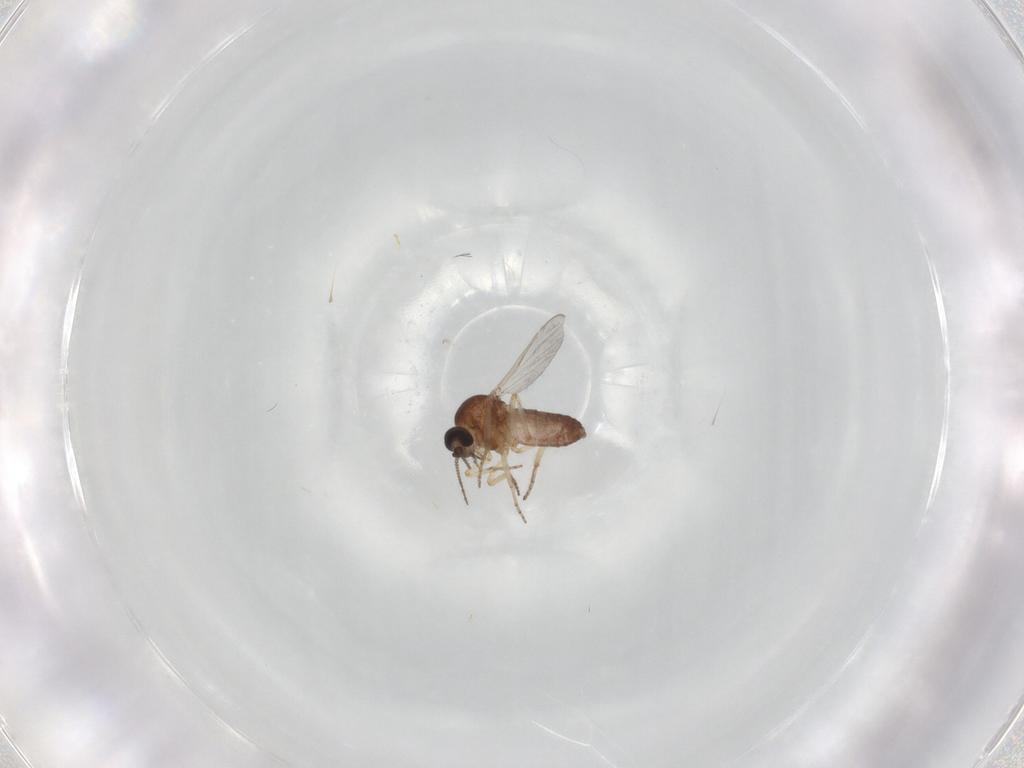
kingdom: Animalia
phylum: Arthropoda
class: Insecta
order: Diptera
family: Ceratopogonidae
